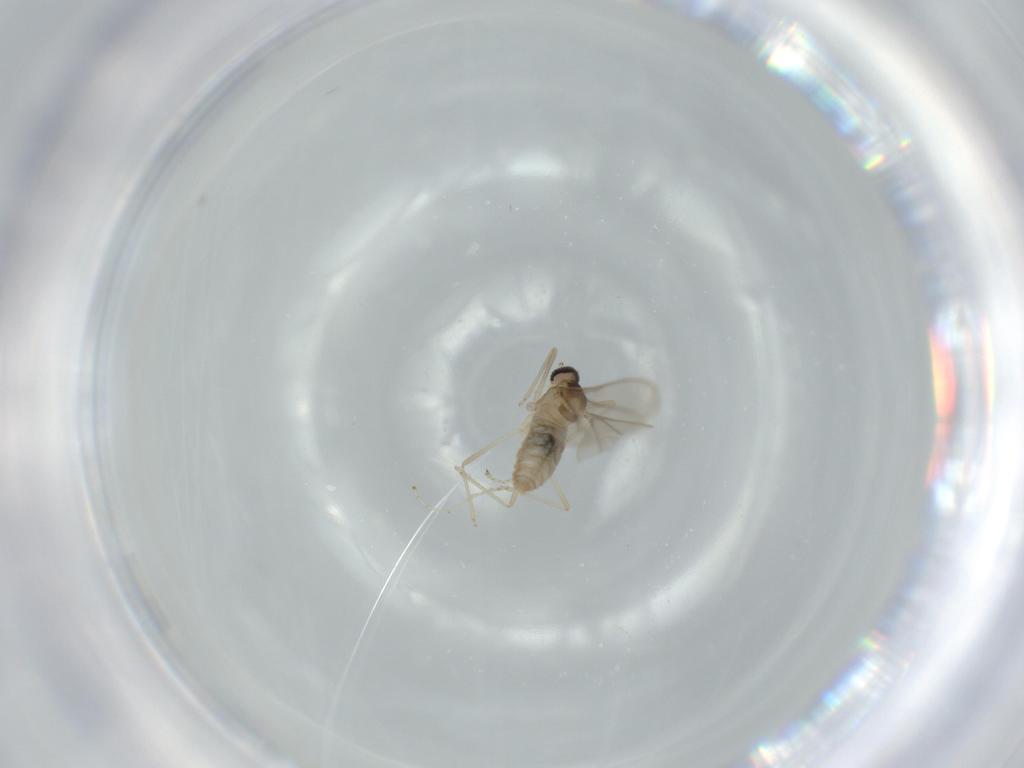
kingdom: Animalia
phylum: Arthropoda
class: Insecta
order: Diptera
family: Cecidomyiidae
